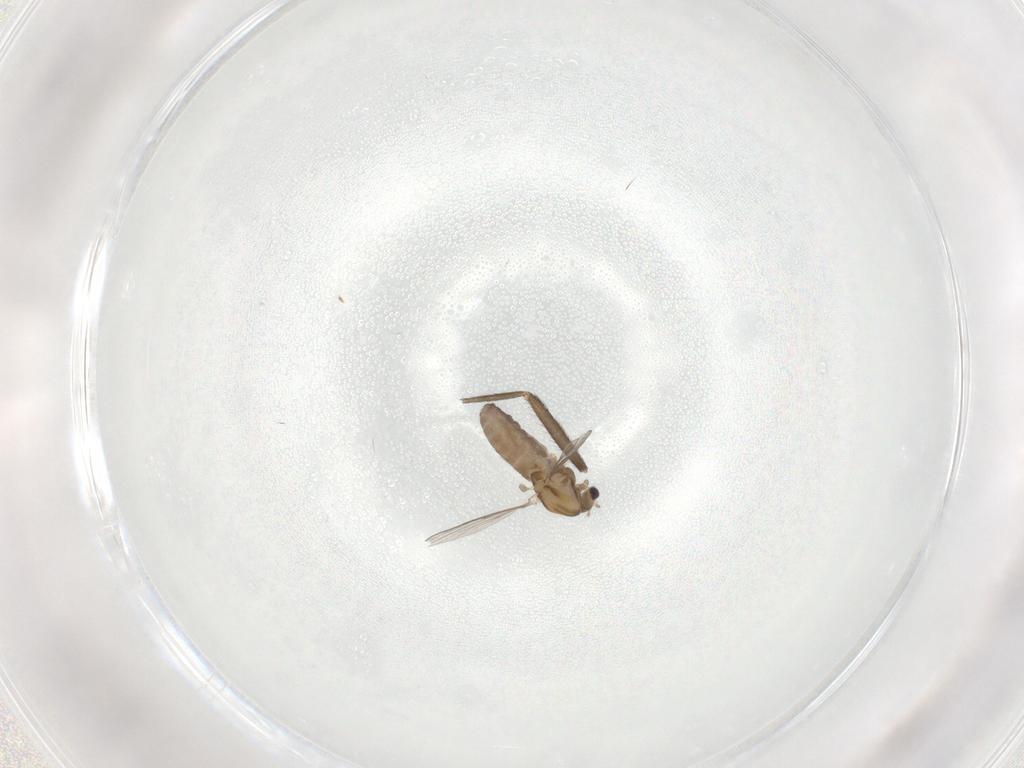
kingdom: Animalia
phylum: Arthropoda
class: Insecta
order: Diptera
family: Chironomidae
